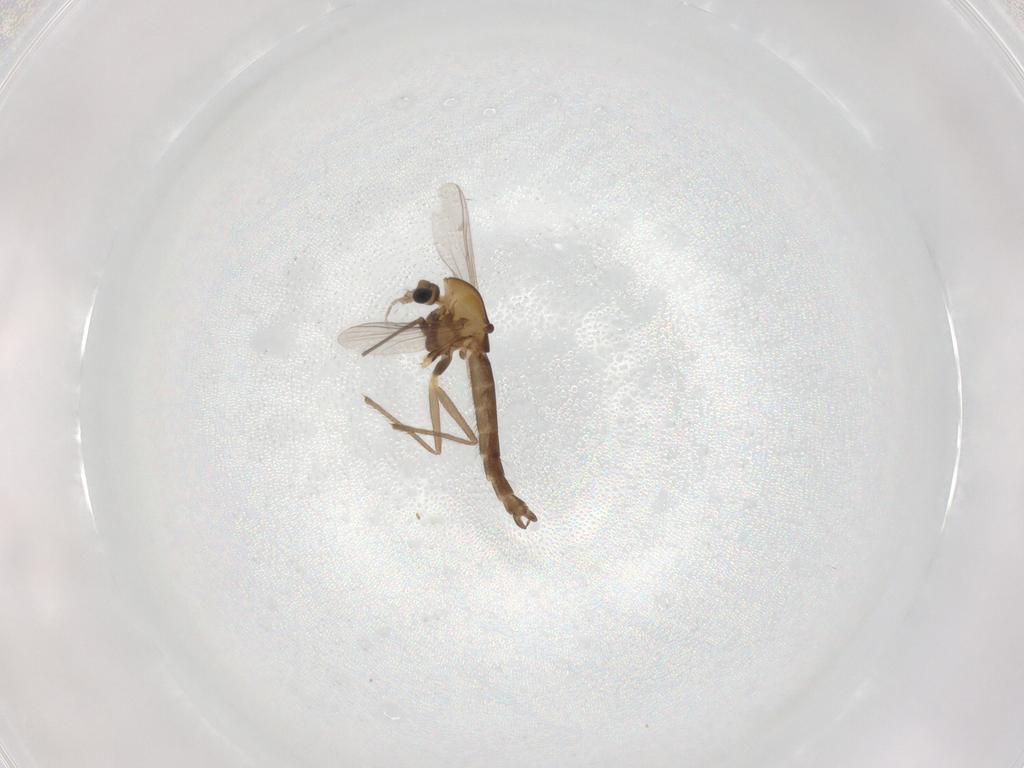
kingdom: Animalia
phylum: Arthropoda
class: Insecta
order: Diptera
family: Chironomidae
